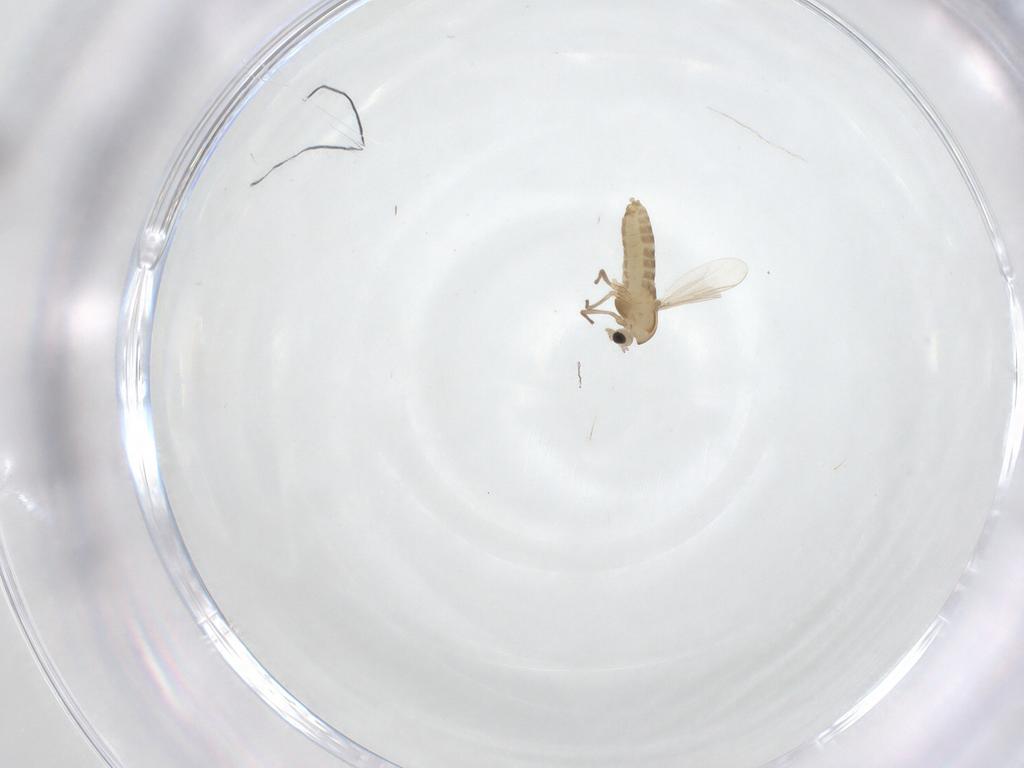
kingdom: Animalia
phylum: Arthropoda
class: Insecta
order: Diptera
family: Chironomidae
